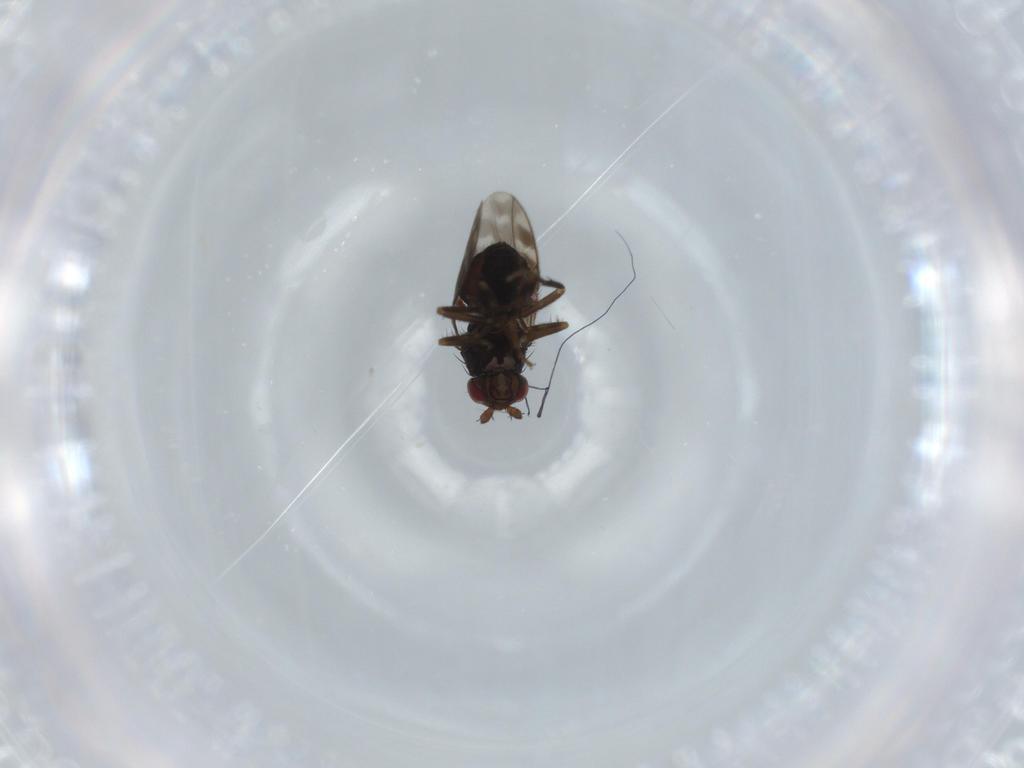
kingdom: Animalia
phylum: Arthropoda
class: Insecta
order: Diptera
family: Sphaeroceridae
